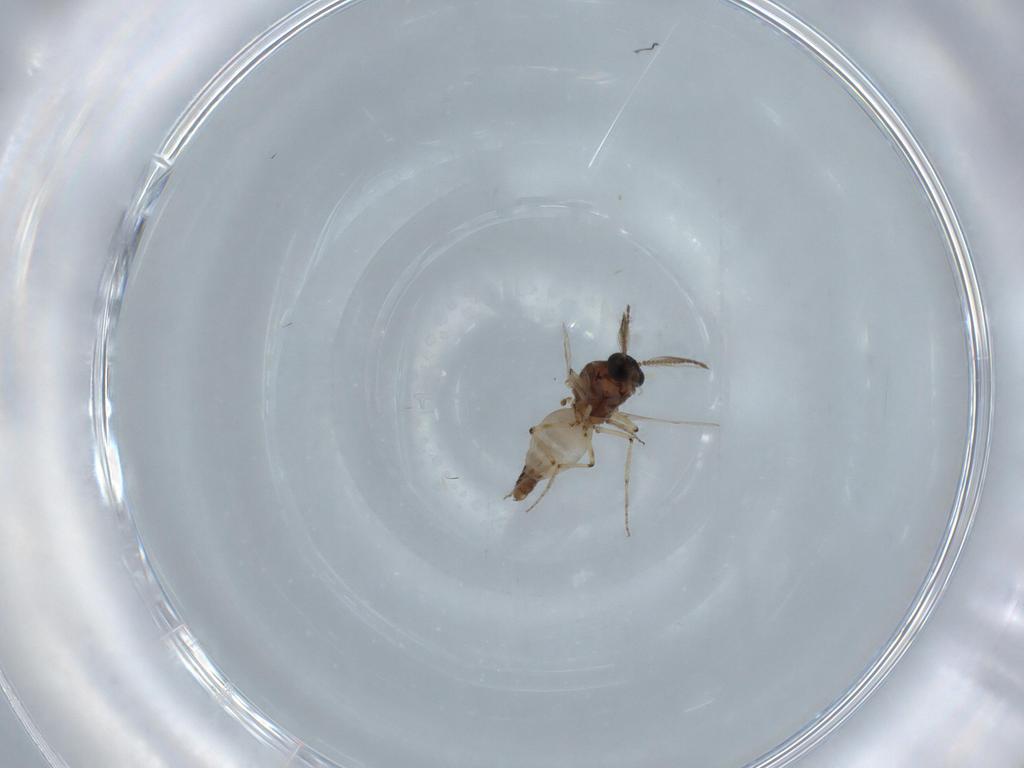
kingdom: Animalia
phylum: Arthropoda
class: Insecta
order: Diptera
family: Ceratopogonidae
